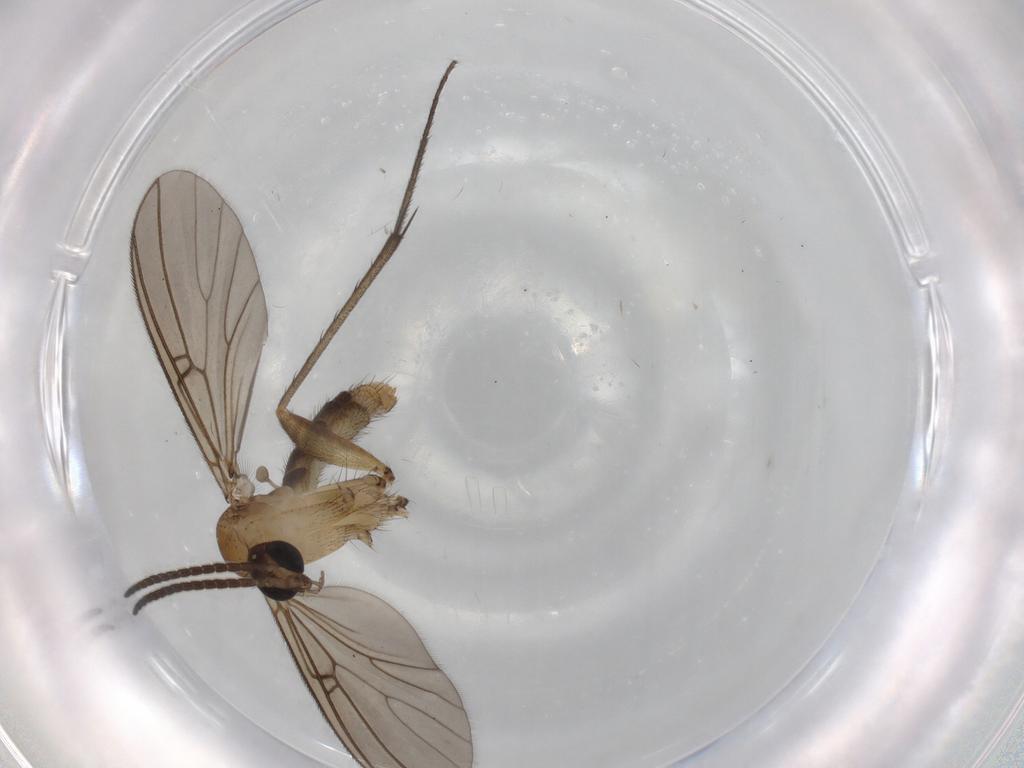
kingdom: Animalia
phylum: Arthropoda
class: Insecta
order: Diptera
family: Mycetophilidae
